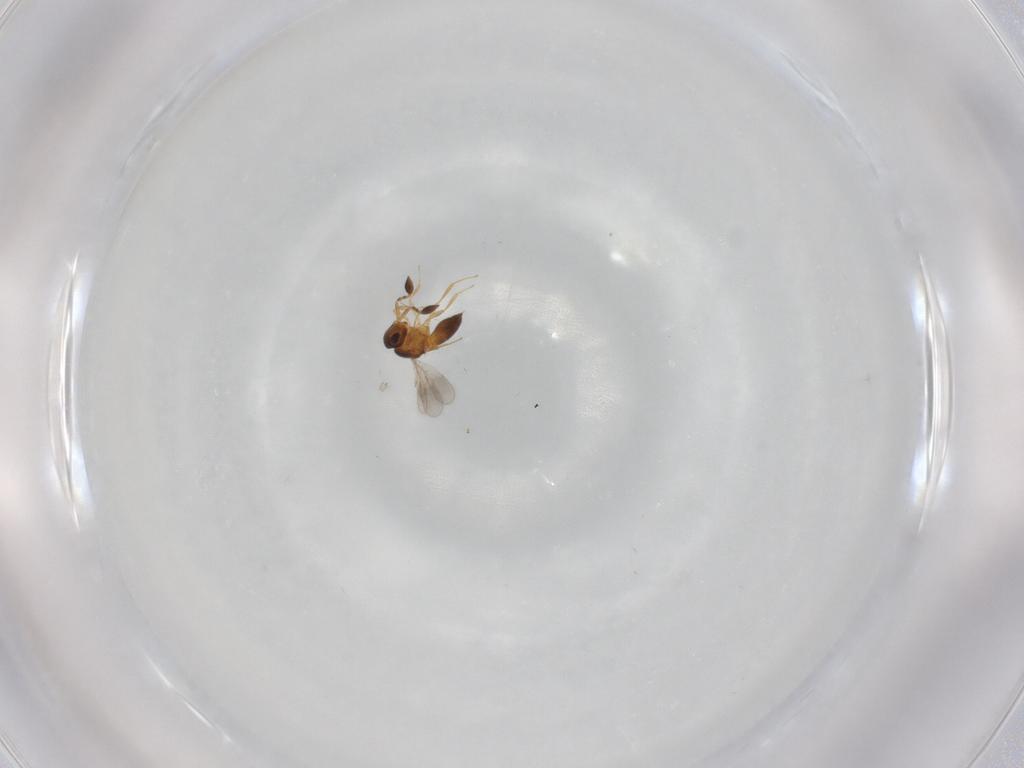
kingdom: Animalia
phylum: Arthropoda
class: Insecta
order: Hymenoptera
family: Scelionidae
